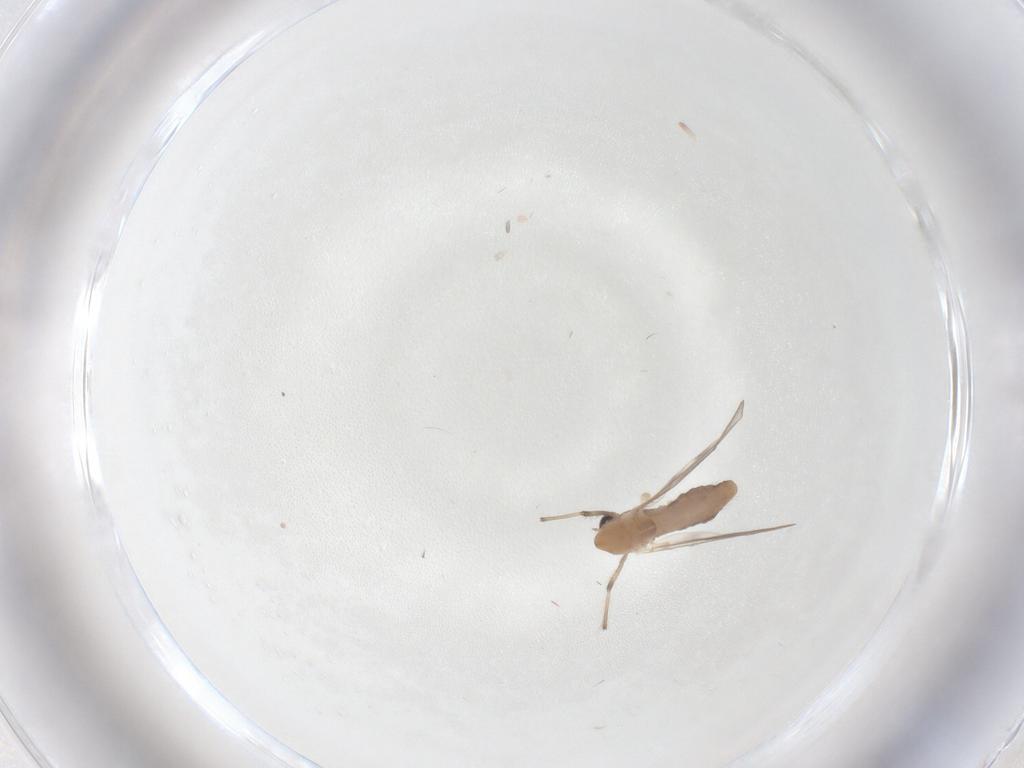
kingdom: Animalia
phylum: Arthropoda
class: Insecta
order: Diptera
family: Chironomidae
